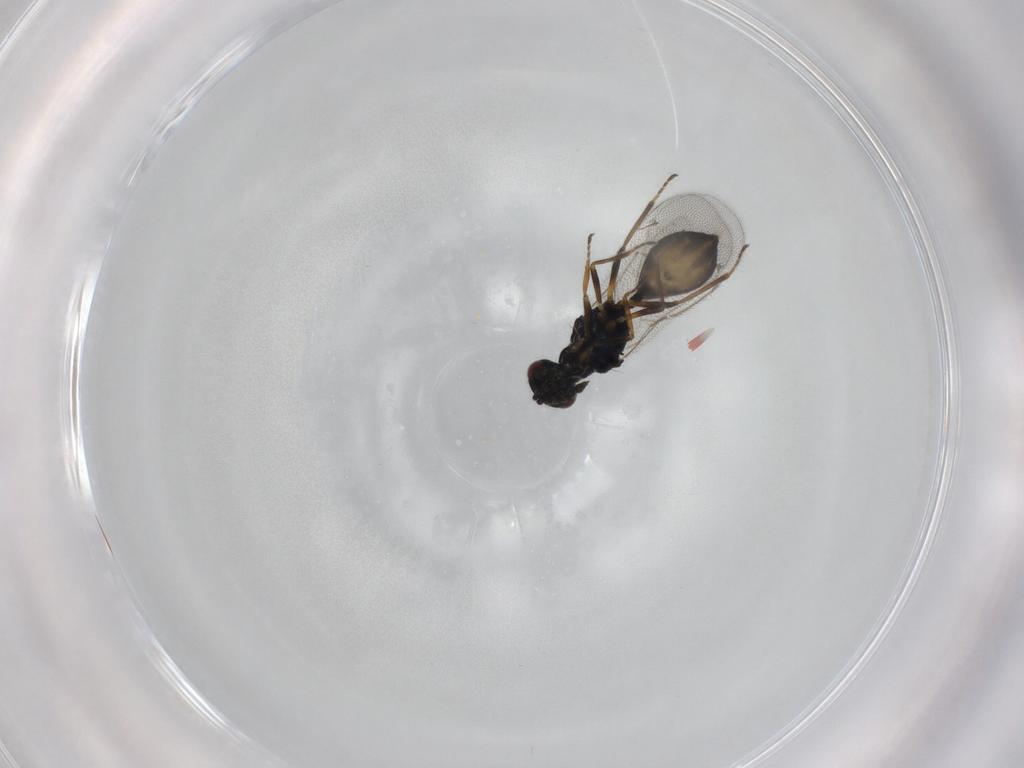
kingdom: Animalia
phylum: Arthropoda
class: Insecta
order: Hymenoptera
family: Eulophidae
